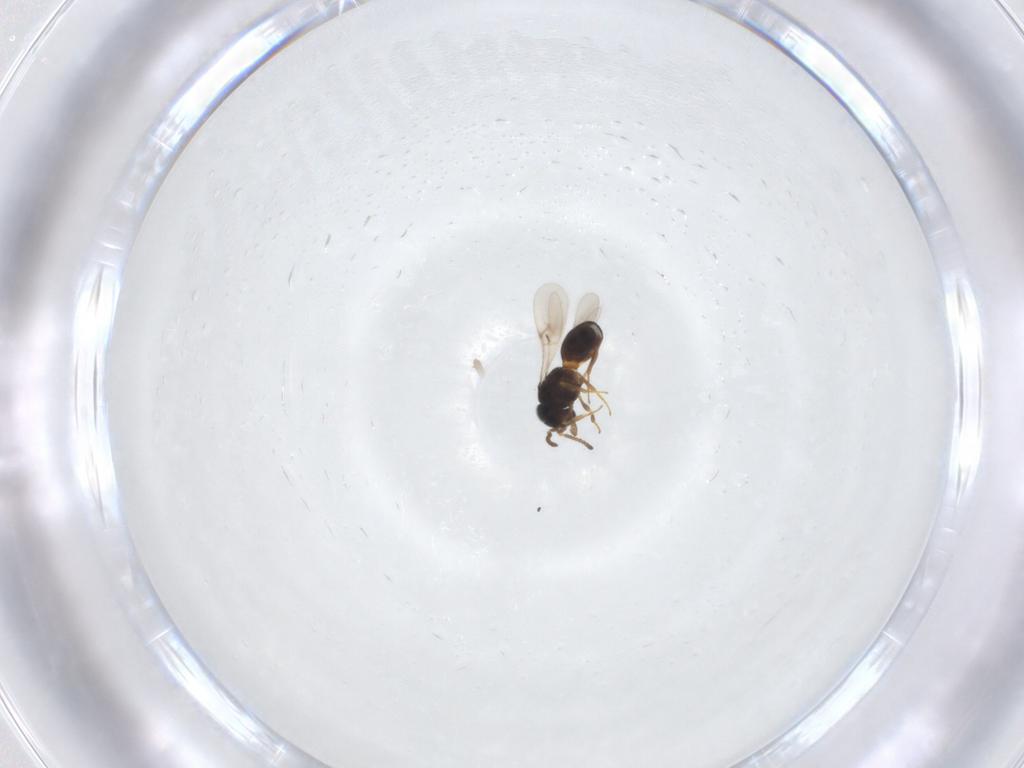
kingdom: Animalia
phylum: Arthropoda
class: Arachnida
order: Araneae
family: Pholcidae
